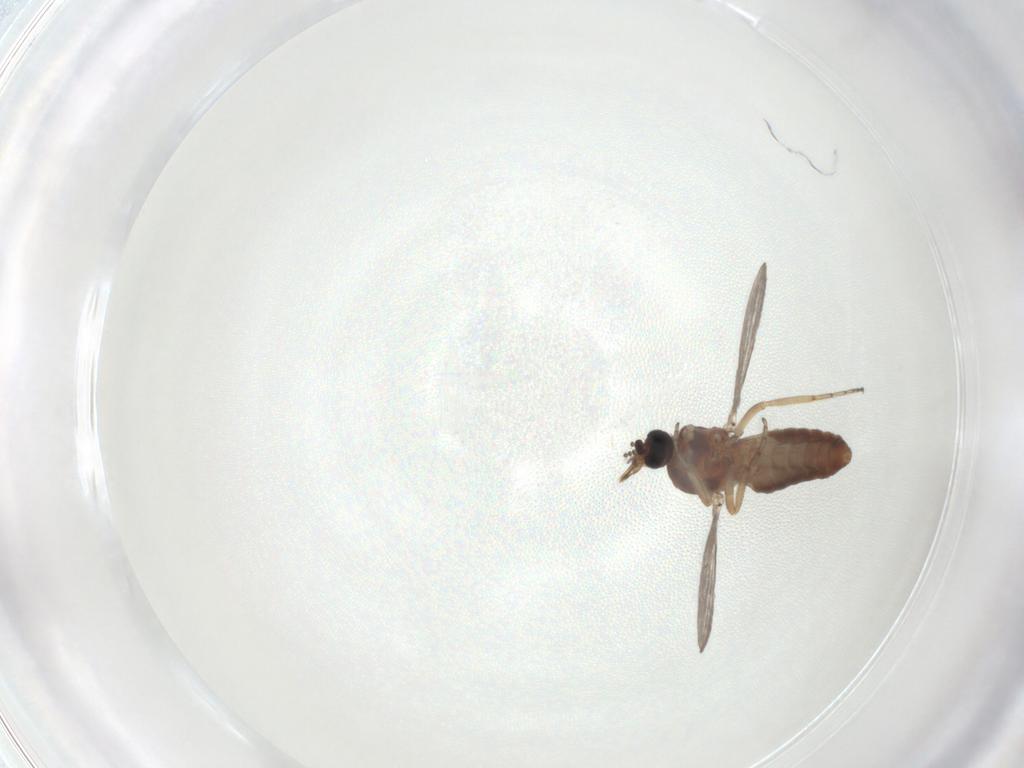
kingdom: Animalia
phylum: Arthropoda
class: Insecta
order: Diptera
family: Ceratopogonidae
